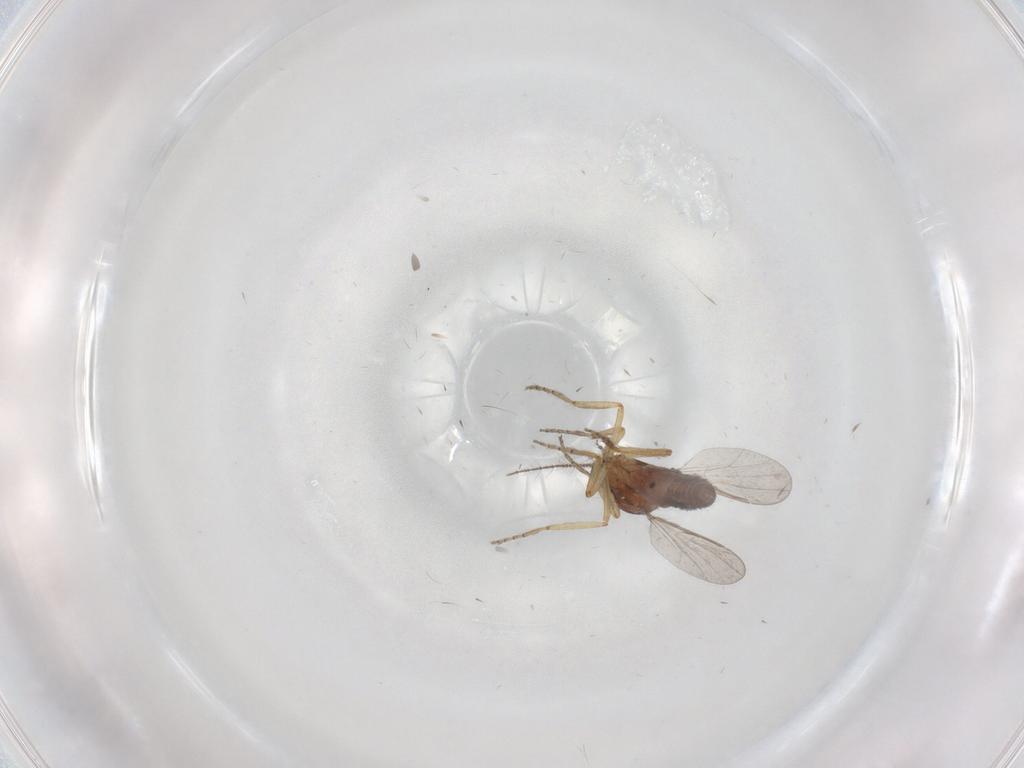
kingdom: Animalia
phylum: Arthropoda
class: Insecta
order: Diptera
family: Ceratopogonidae
